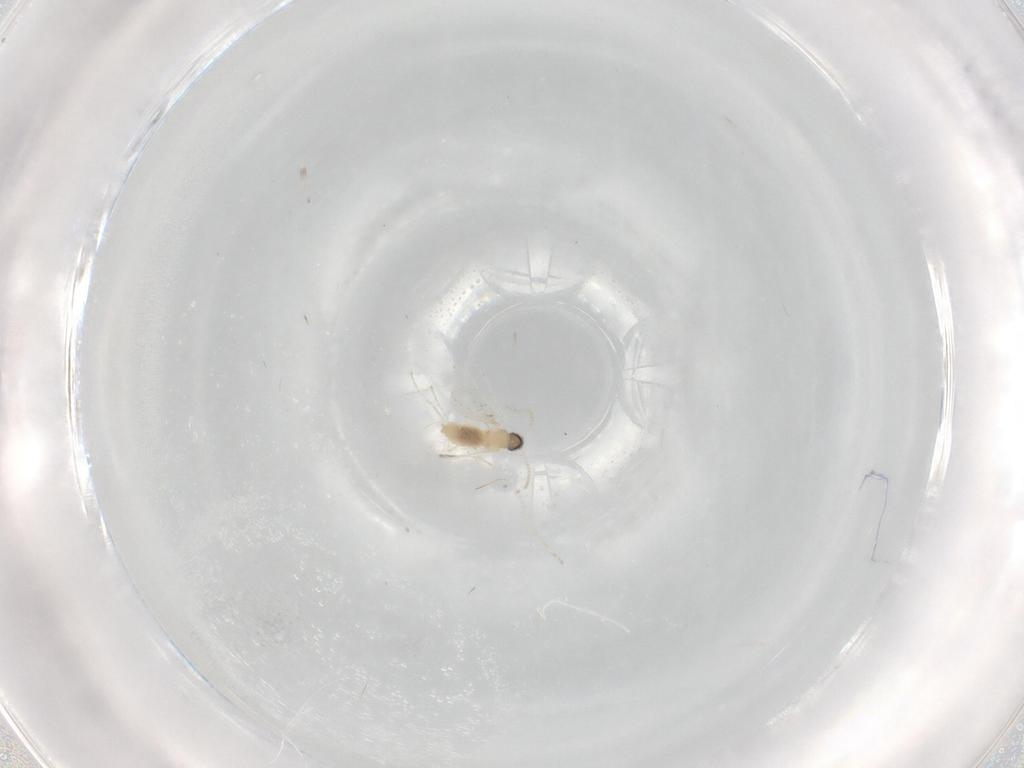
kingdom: Animalia
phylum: Arthropoda
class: Insecta
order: Diptera
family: Cecidomyiidae
